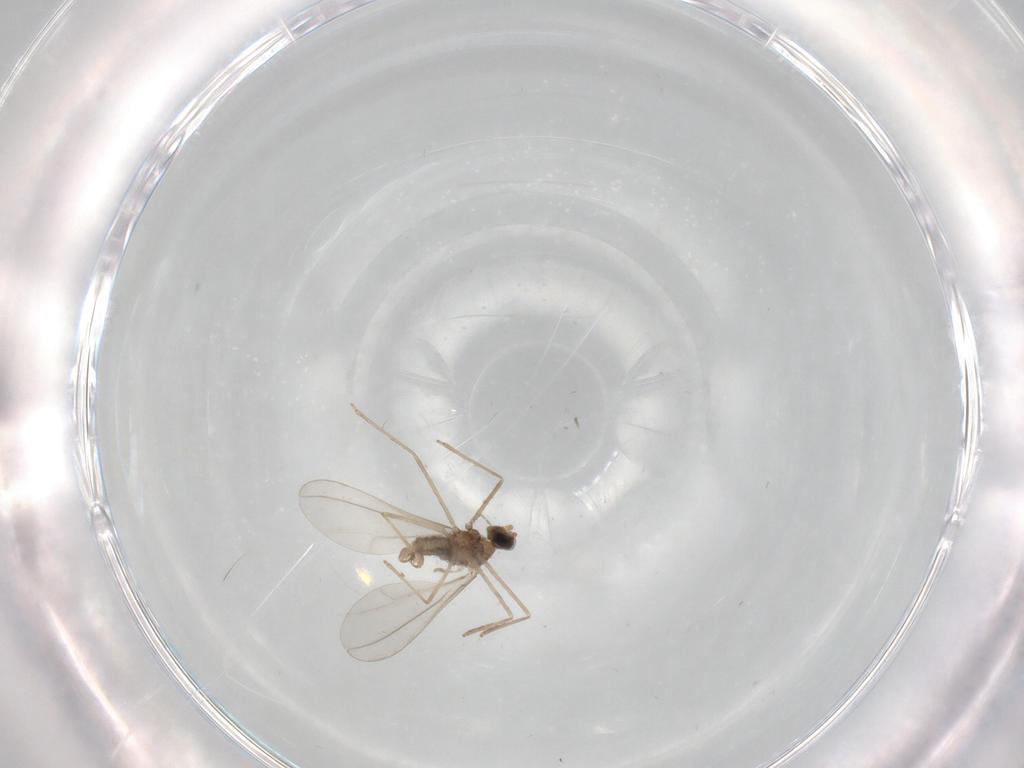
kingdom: Animalia
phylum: Arthropoda
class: Insecta
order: Diptera
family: Cecidomyiidae
